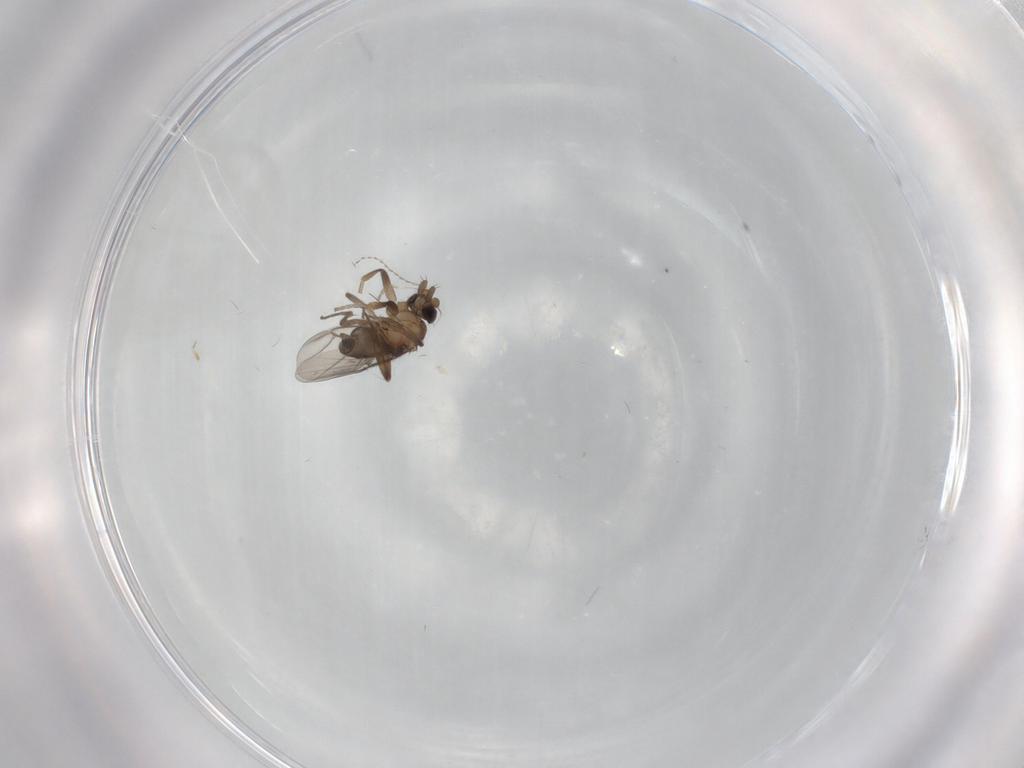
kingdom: Animalia
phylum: Arthropoda
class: Insecta
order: Diptera
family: Phoridae
